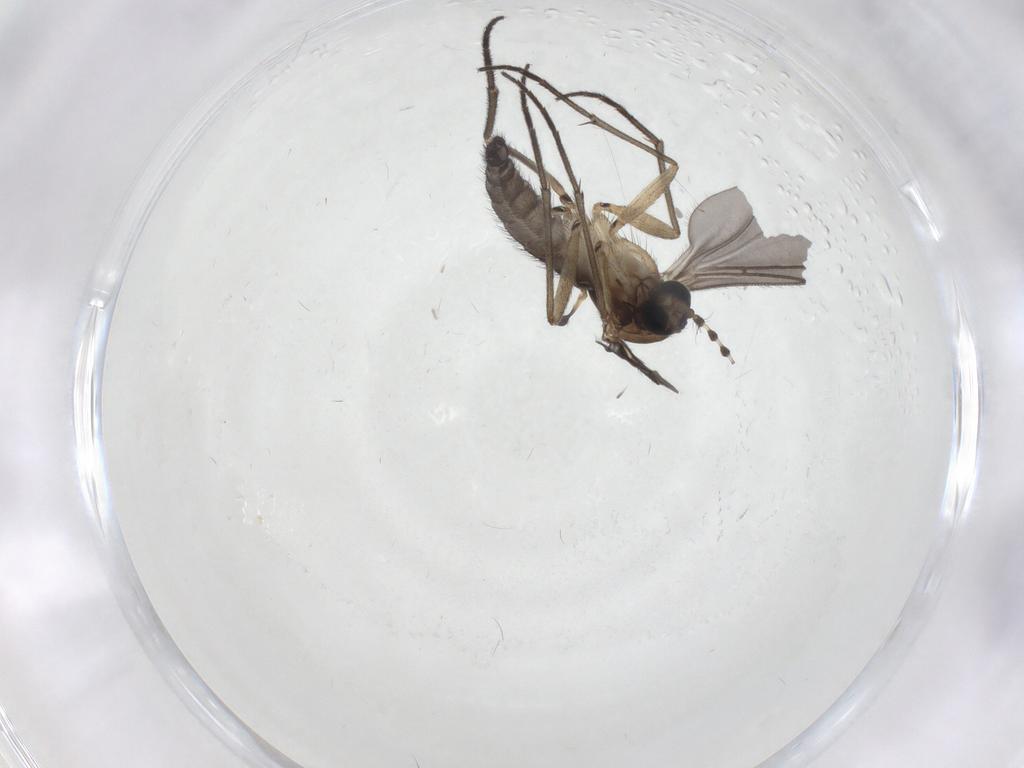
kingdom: Animalia
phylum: Arthropoda
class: Insecta
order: Diptera
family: Sciaridae
